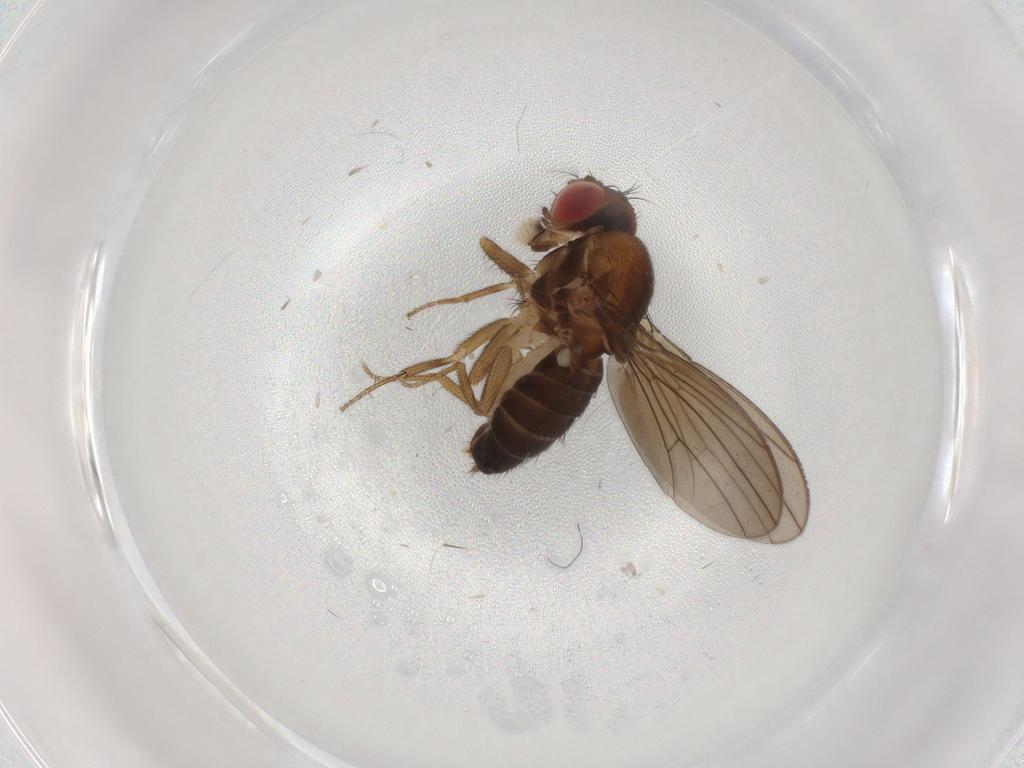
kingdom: Animalia
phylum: Arthropoda
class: Insecta
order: Diptera
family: Drosophilidae
